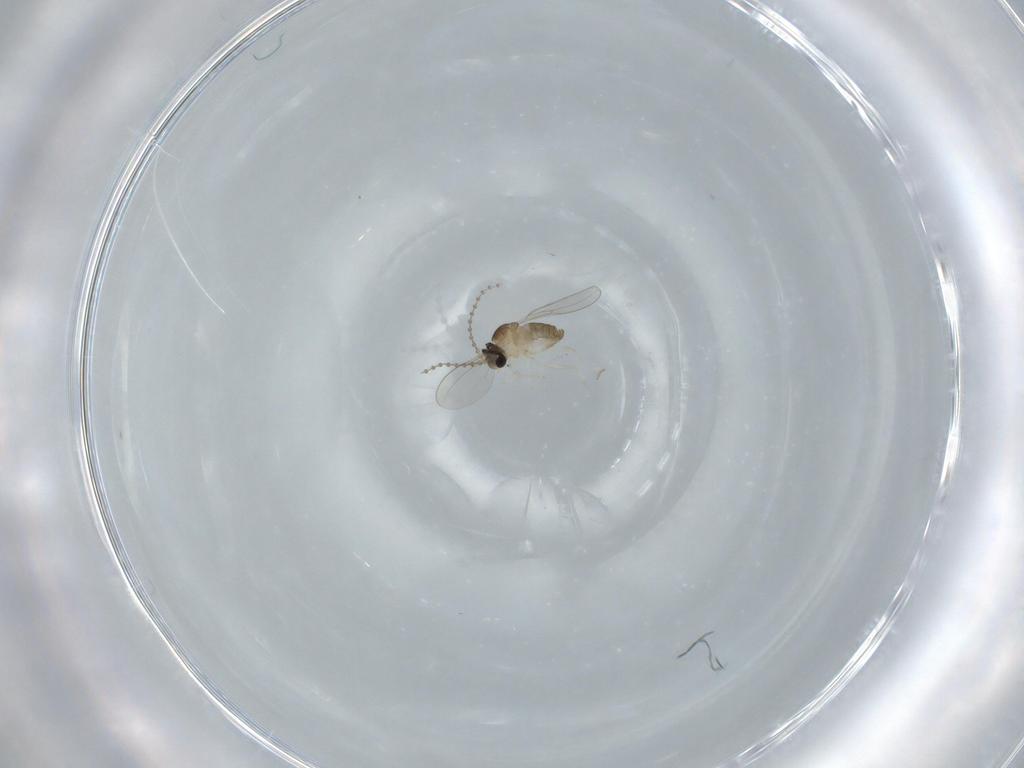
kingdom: Animalia
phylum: Arthropoda
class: Insecta
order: Diptera
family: Cecidomyiidae
